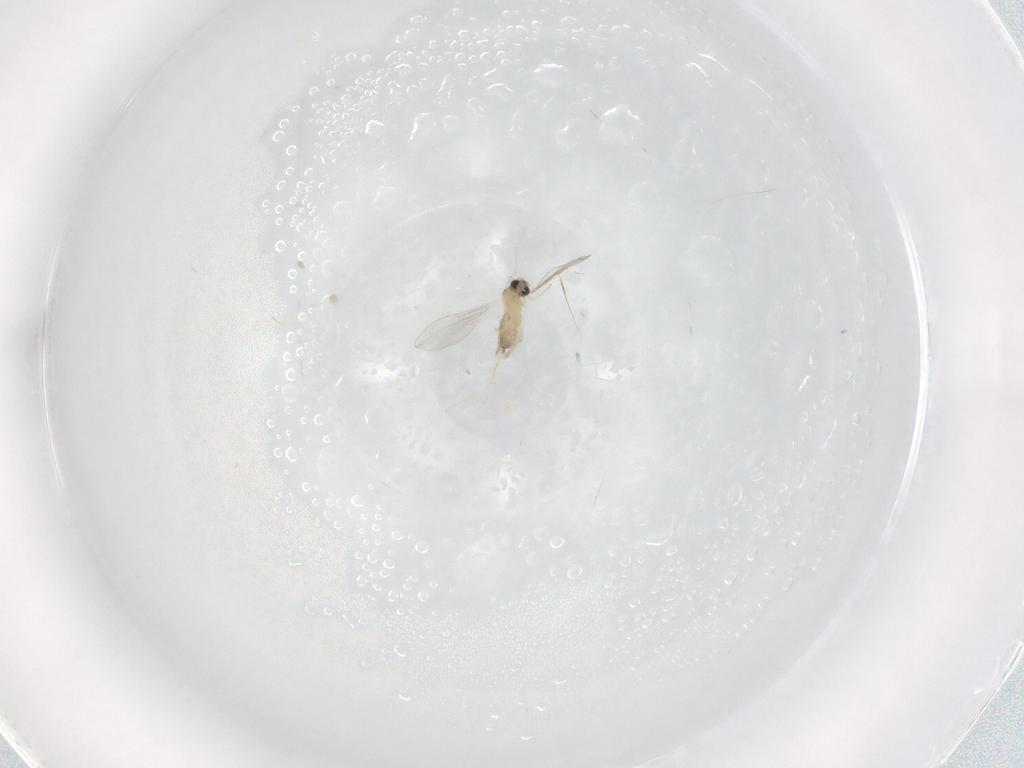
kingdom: Animalia
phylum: Arthropoda
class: Insecta
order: Diptera
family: Cecidomyiidae
